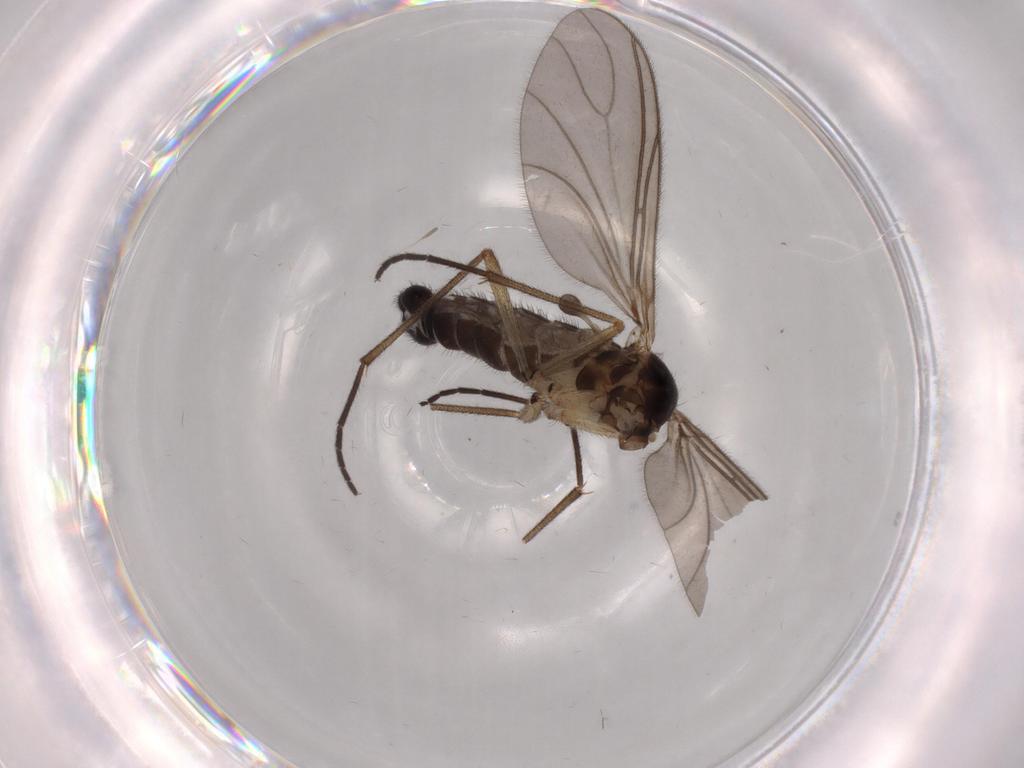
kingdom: Animalia
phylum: Arthropoda
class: Insecta
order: Diptera
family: Sciaridae
